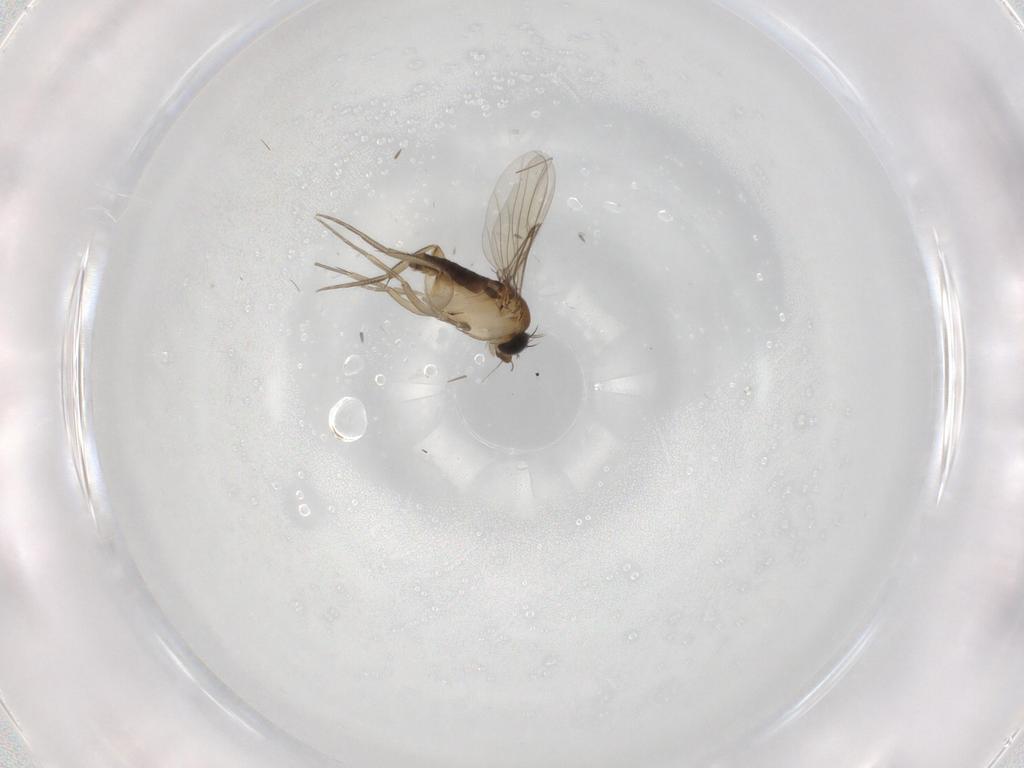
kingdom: Animalia
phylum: Arthropoda
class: Insecta
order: Diptera
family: Phoridae
